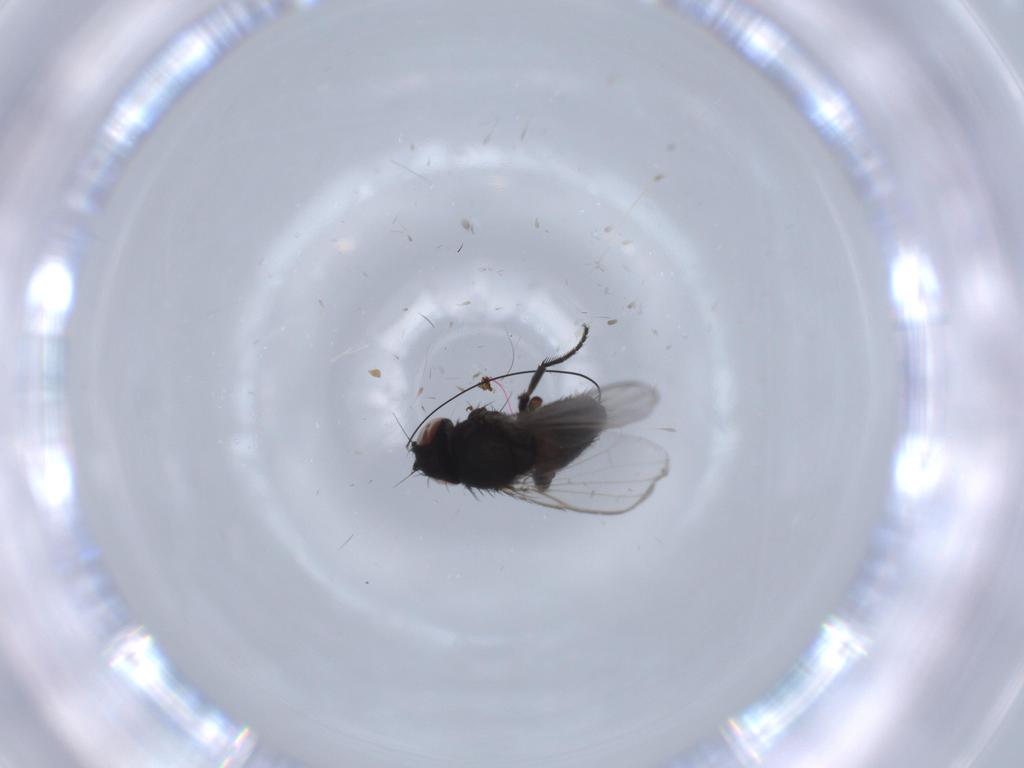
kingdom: Animalia
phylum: Arthropoda
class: Insecta
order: Diptera
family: Milichiidae
